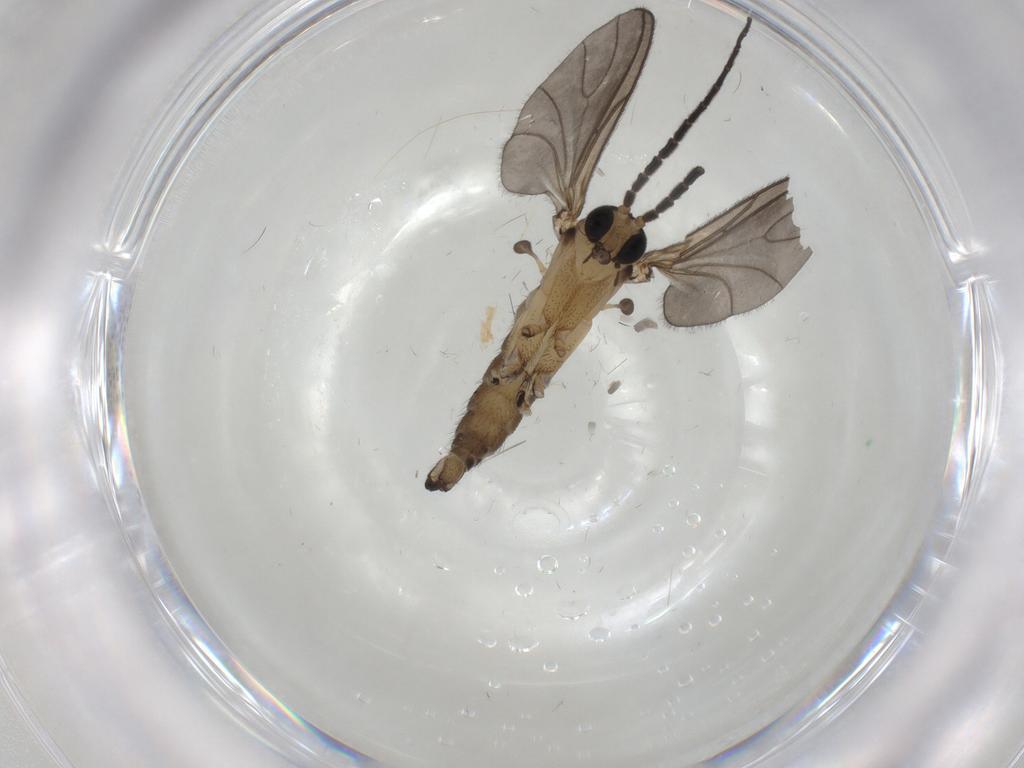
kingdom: Animalia
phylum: Arthropoda
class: Insecta
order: Diptera
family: Sciaridae
